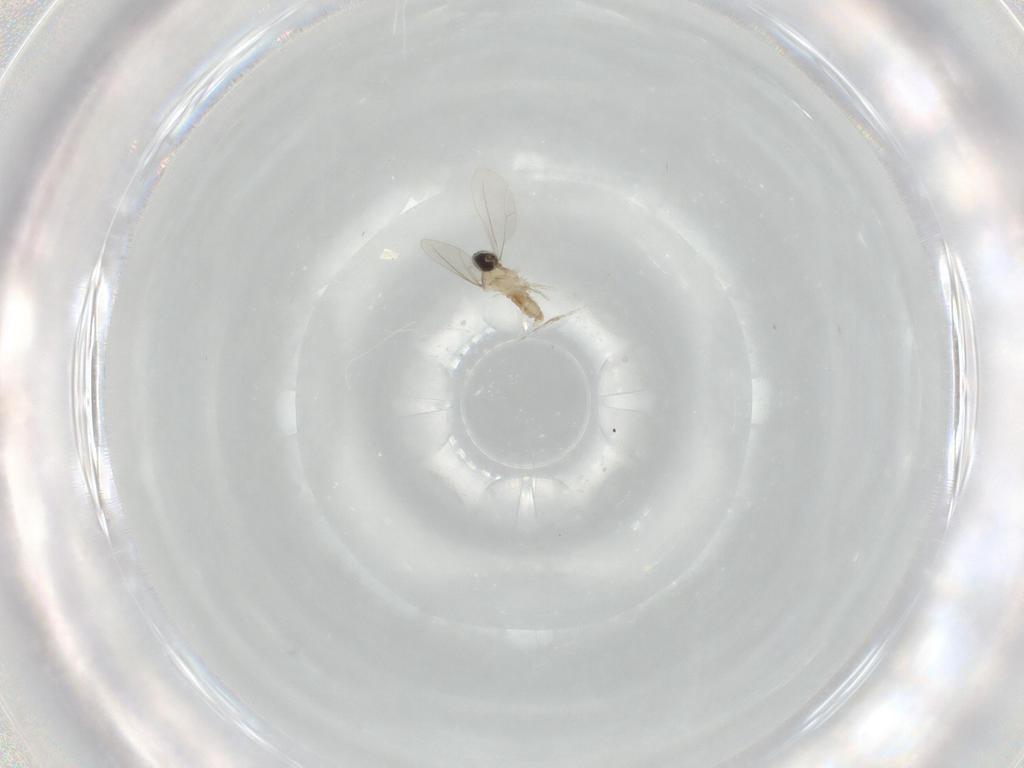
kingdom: Animalia
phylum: Arthropoda
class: Insecta
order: Diptera
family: Cecidomyiidae
